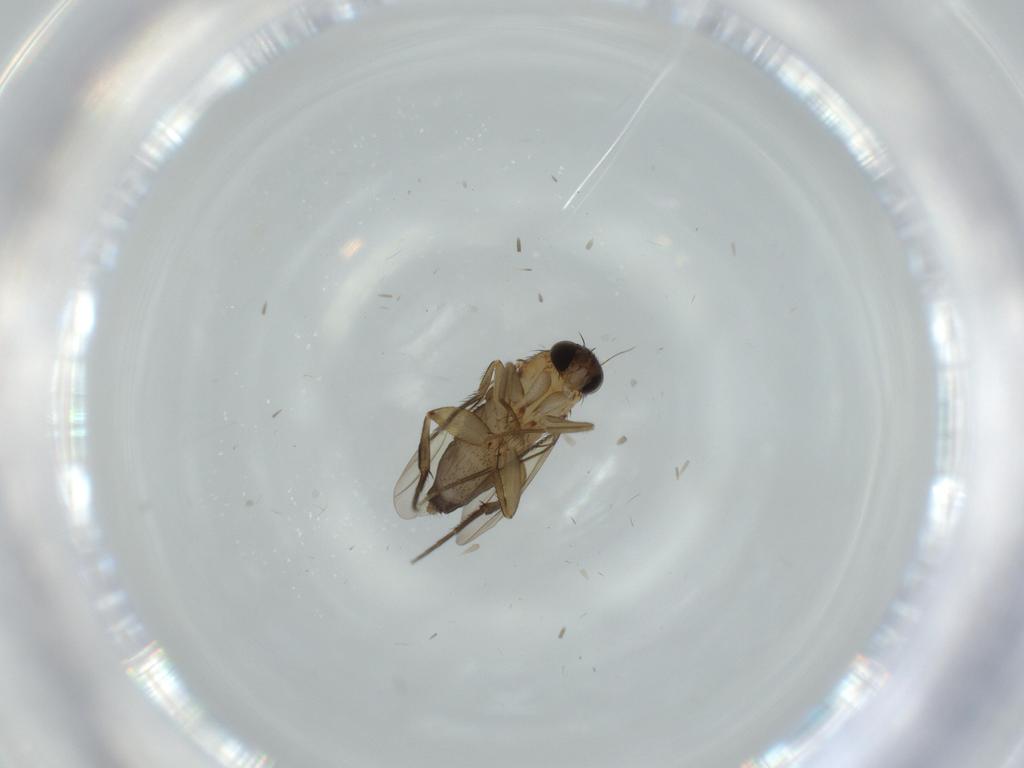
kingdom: Animalia
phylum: Arthropoda
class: Insecta
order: Diptera
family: Phoridae
